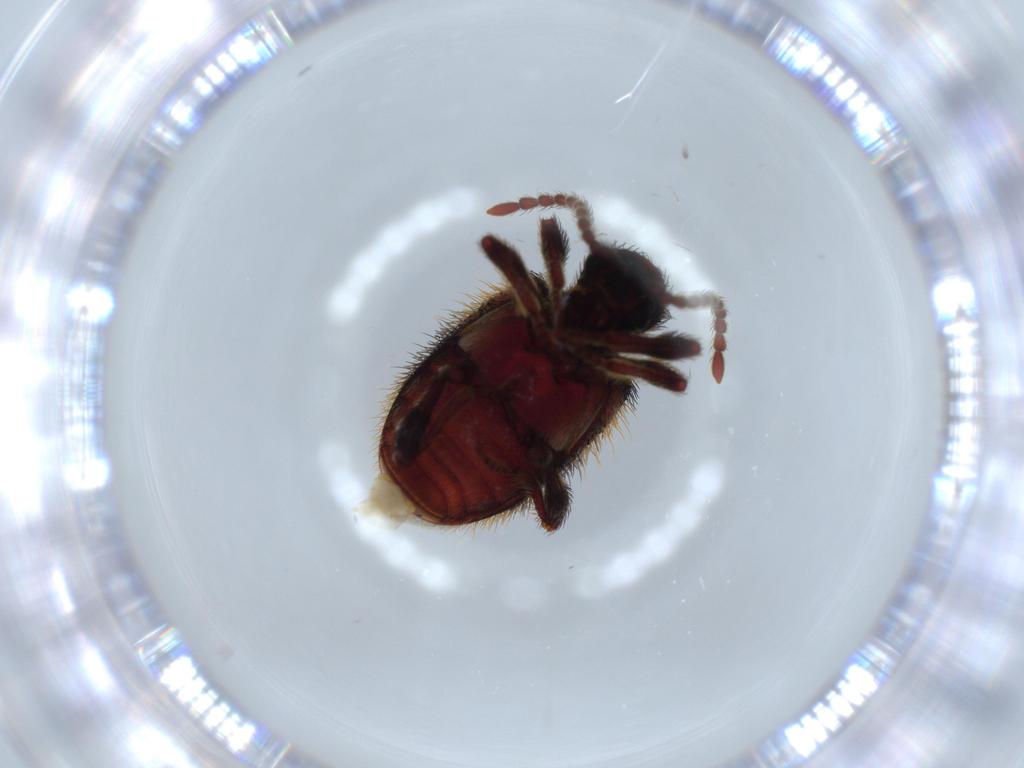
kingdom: Animalia
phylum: Arthropoda
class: Insecta
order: Coleoptera
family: Ptinidae
